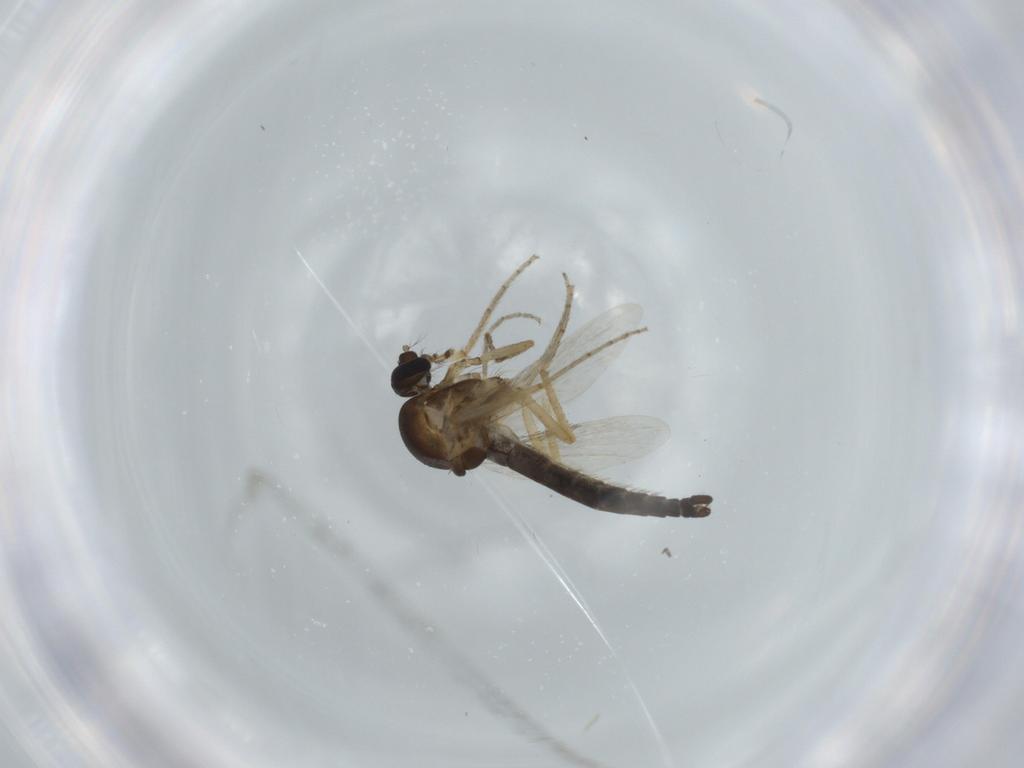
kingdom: Animalia
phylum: Arthropoda
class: Insecta
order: Diptera
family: Ceratopogonidae
